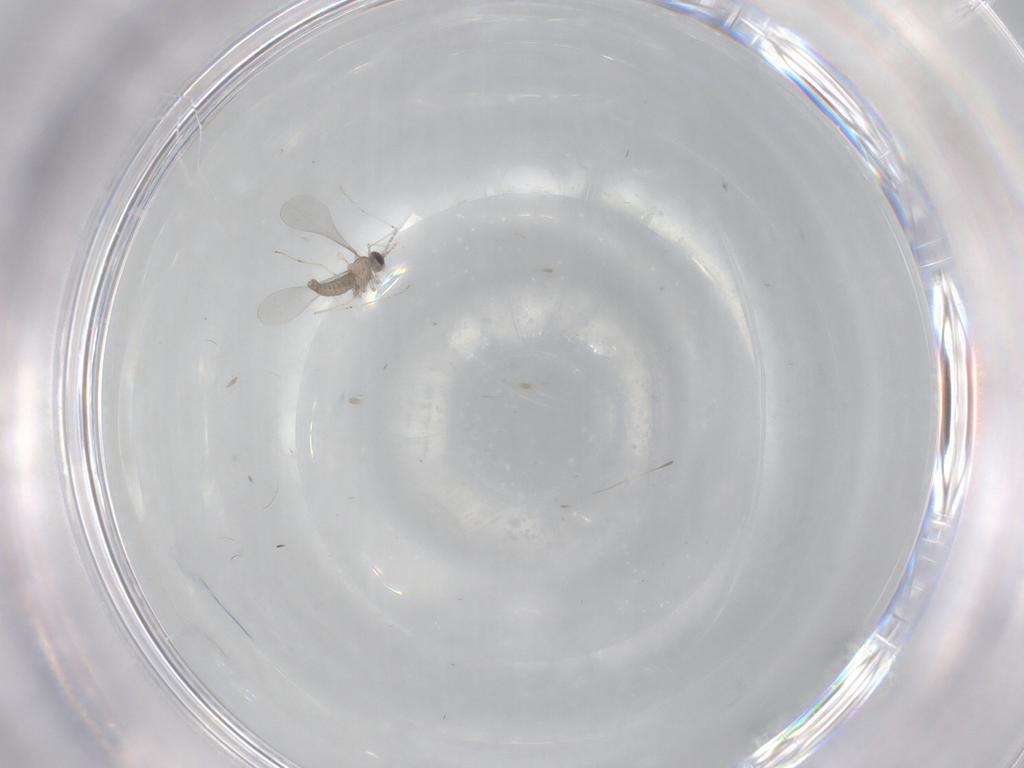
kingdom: Animalia
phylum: Arthropoda
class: Insecta
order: Diptera
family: Cecidomyiidae
